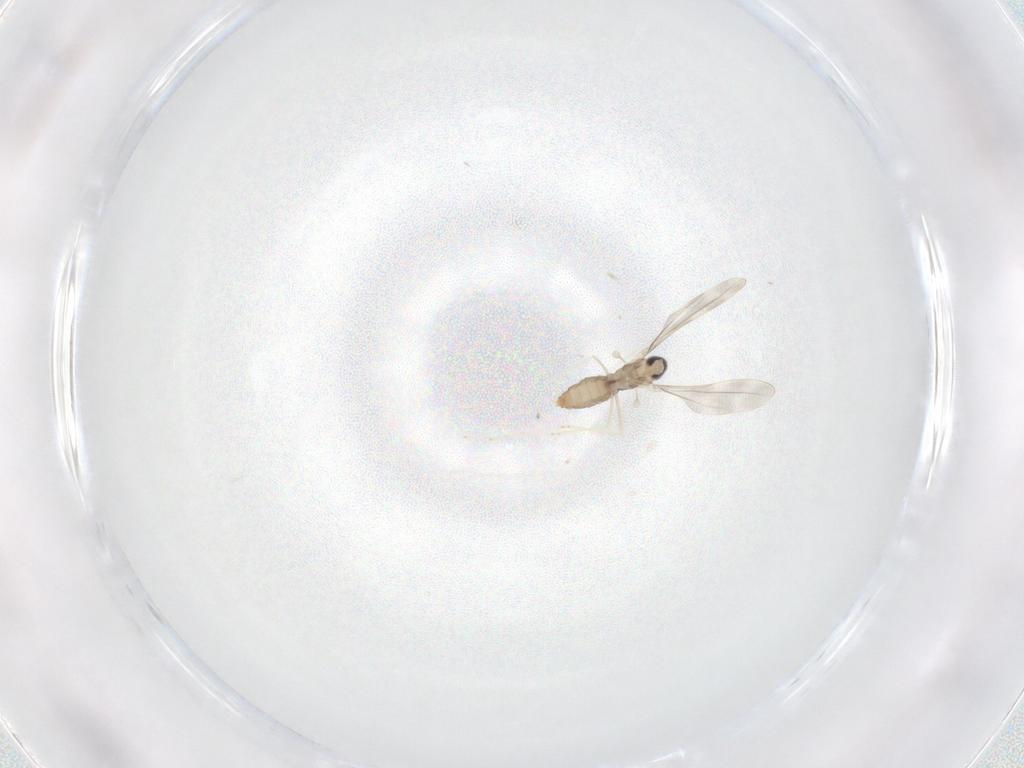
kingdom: Animalia
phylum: Arthropoda
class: Insecta
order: Diptera
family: Cecidomyiidae
